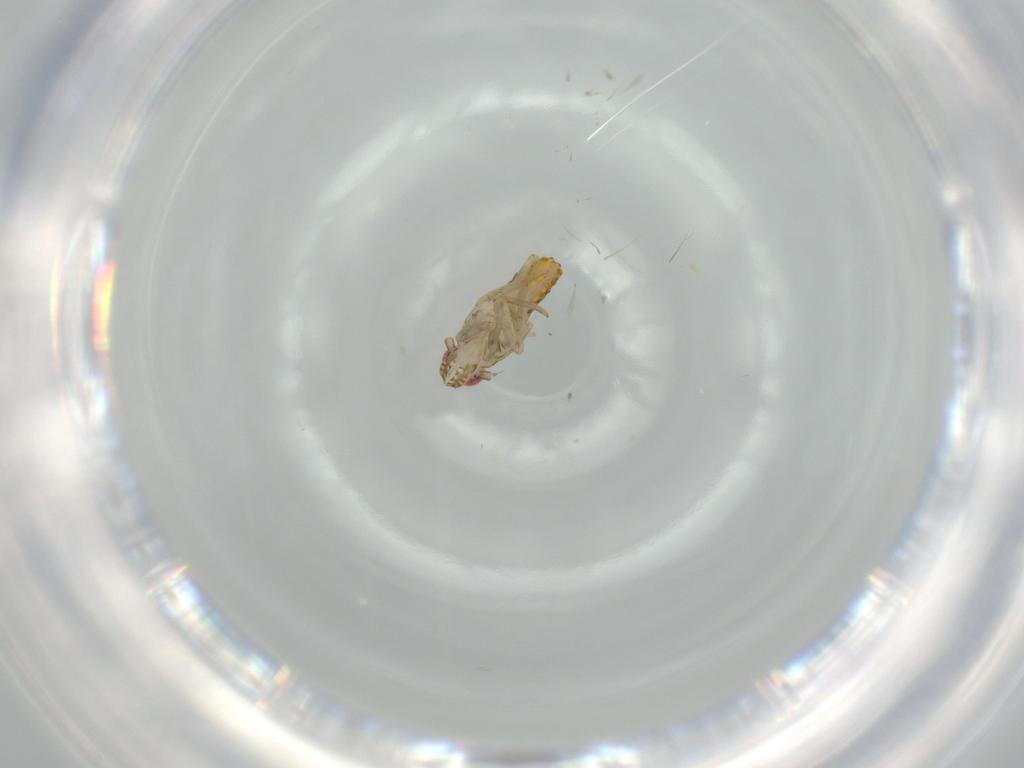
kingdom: Animalia
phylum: Arthropoda
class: Insecta
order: Hemiptera
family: Delphacidae
